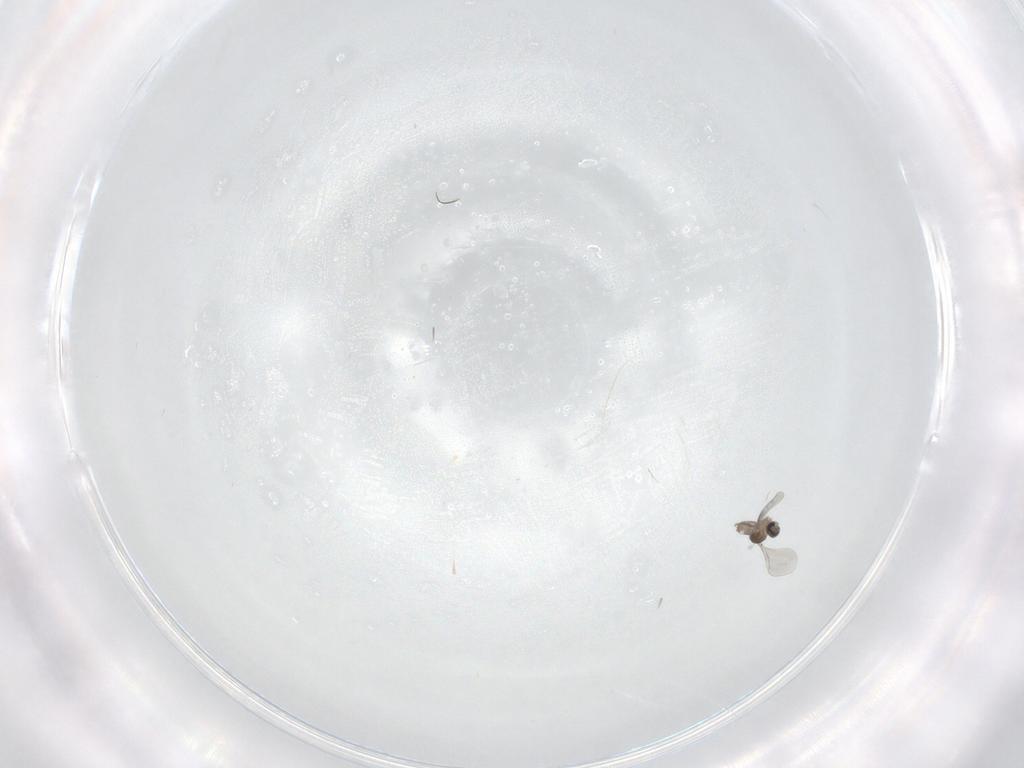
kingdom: Animalia
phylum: Arthropoda
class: Insecta
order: Diptera
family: Cecidomyiidae
